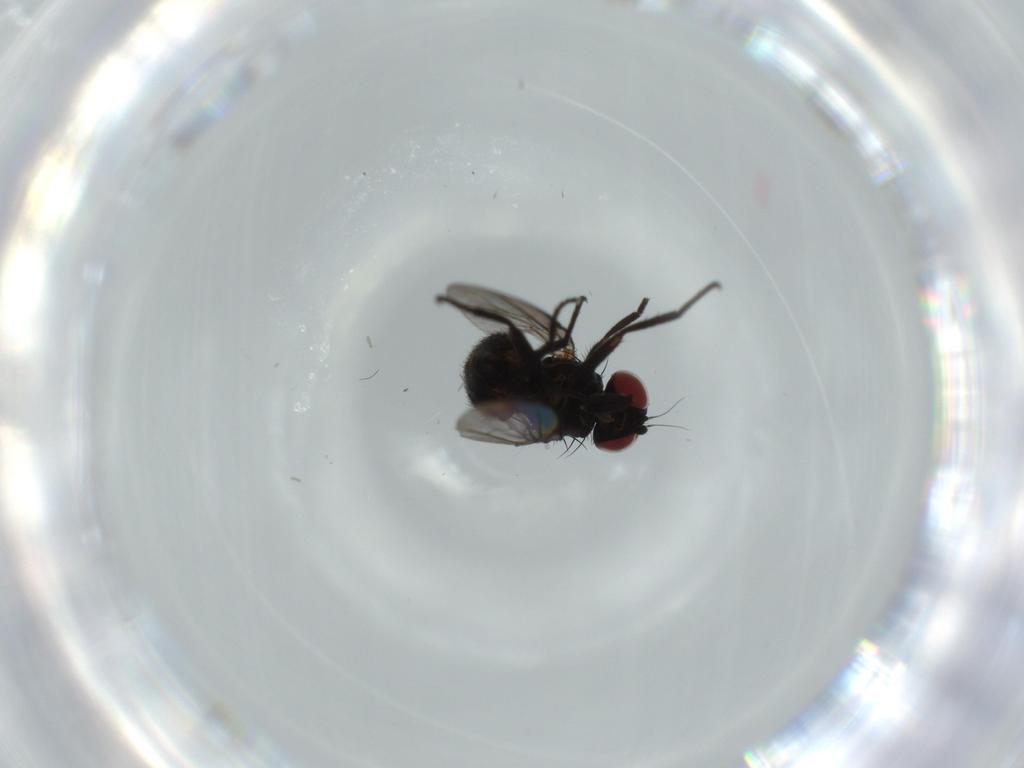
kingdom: Animalia
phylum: Arthropoda
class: Insecta
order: Diptera
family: Agromyzidae
